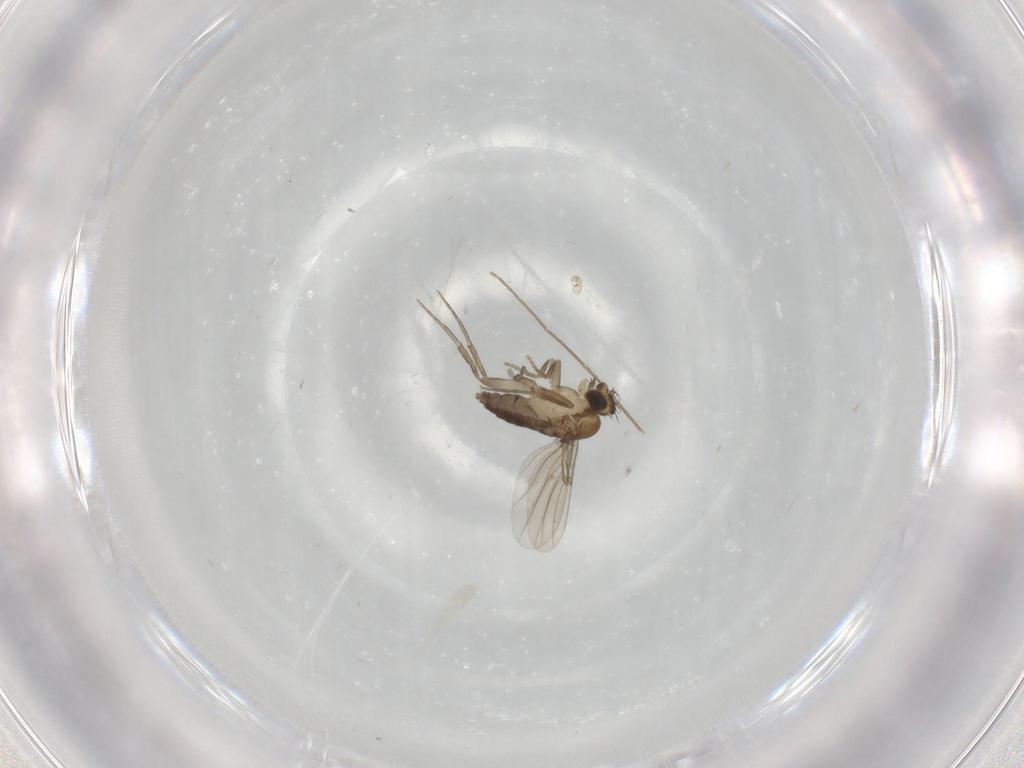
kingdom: Animalia
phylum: Arthropoda
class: Insecta
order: Diptera
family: Phoridae
